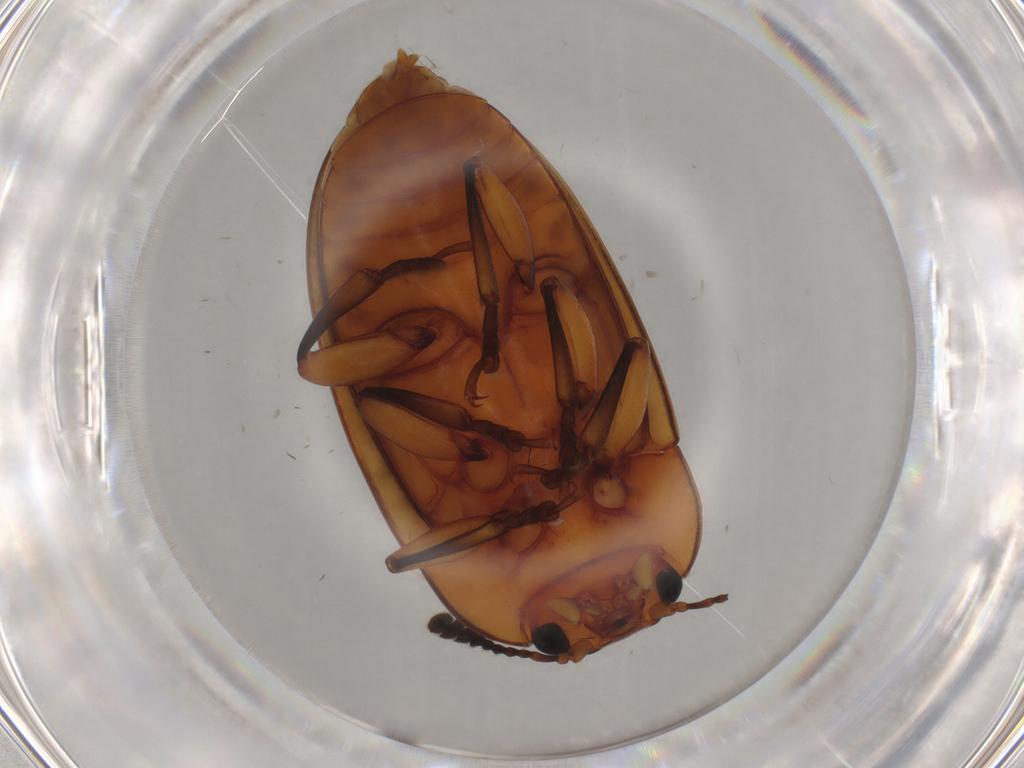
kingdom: Animalia
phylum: Arthropoda
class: Insecta
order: Coleoptera
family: Erotylidae
